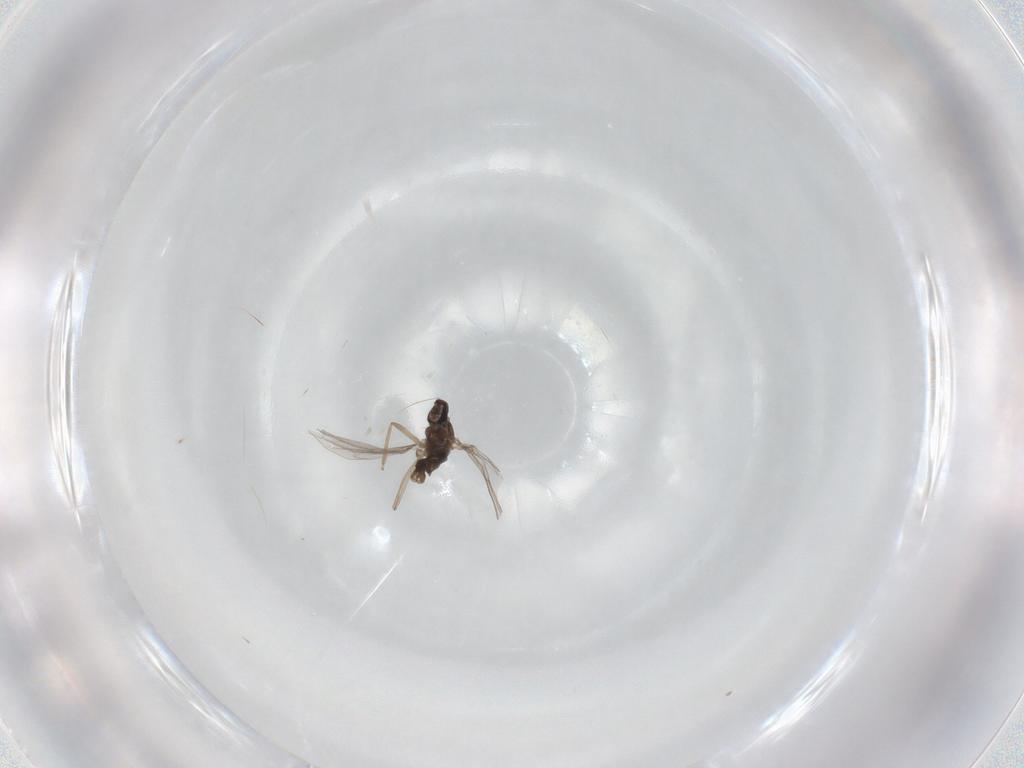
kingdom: Animalia
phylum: Arthropoda
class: Insecta
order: Diptera
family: Cecidomyiidae
